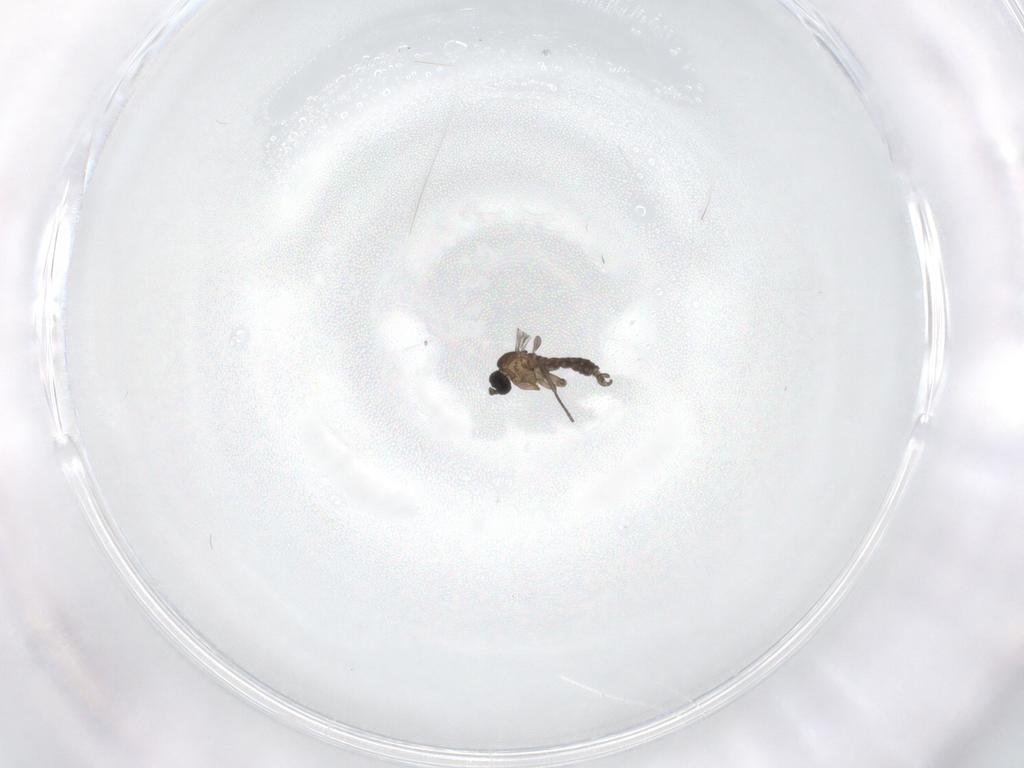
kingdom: Animalia
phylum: Arthropoda
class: Insecta
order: Diptera
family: Sciaridae
